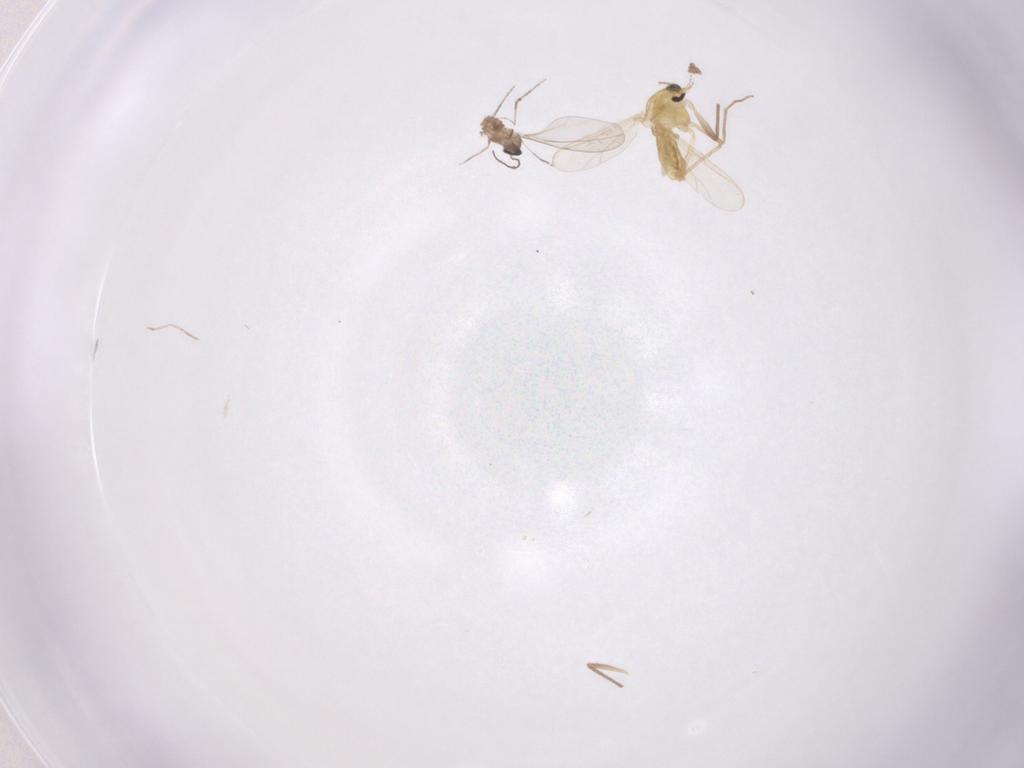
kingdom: Animalia
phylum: Arthropoda
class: Insecta
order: Diptera
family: Chironomidae
